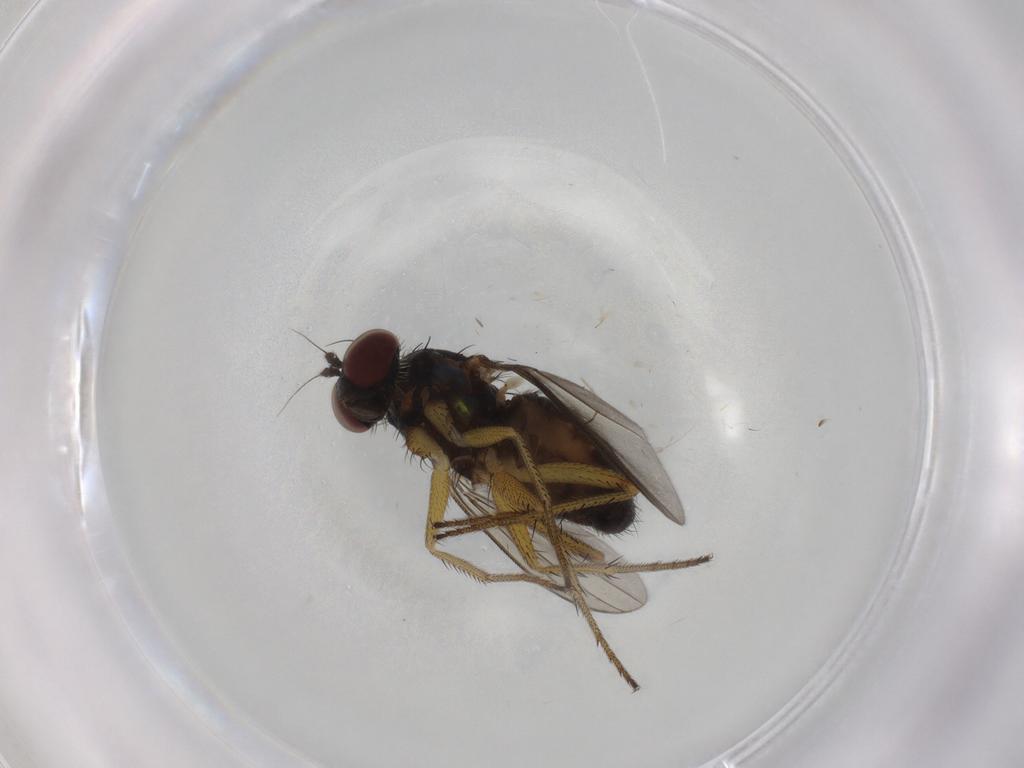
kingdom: Animalia
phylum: Arthropoda
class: Insecta
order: Diptera
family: Dolichopodidae
